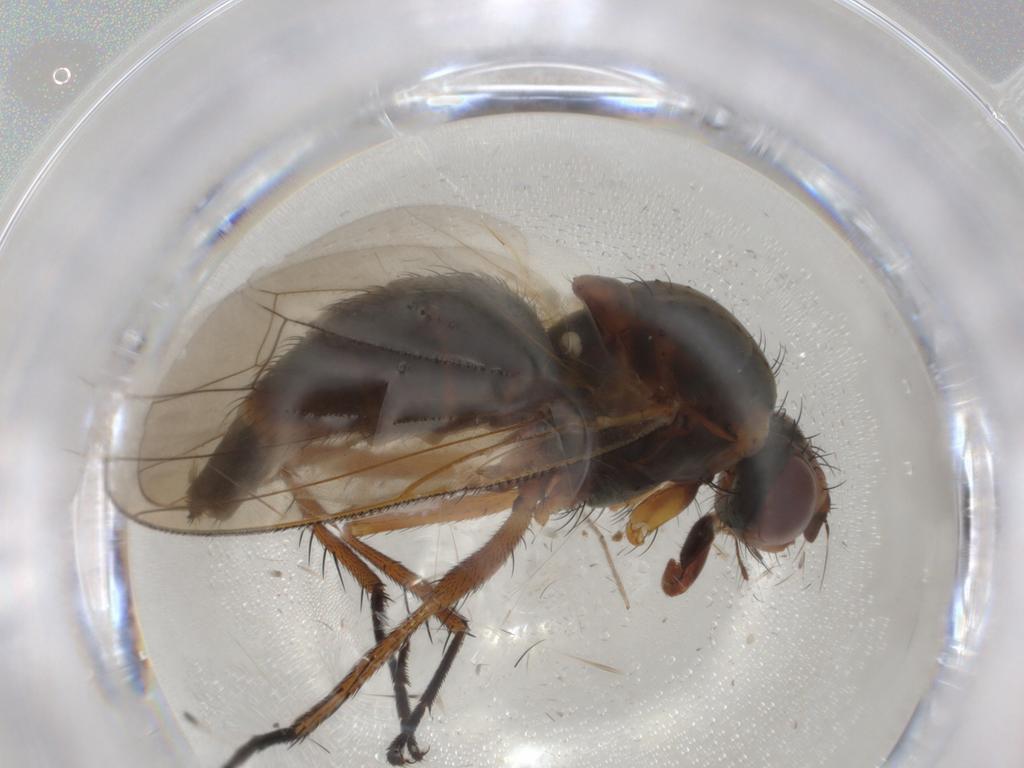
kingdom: Animalia
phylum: Arthropoda
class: Insecta
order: Diptera
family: Anthomyiidae
